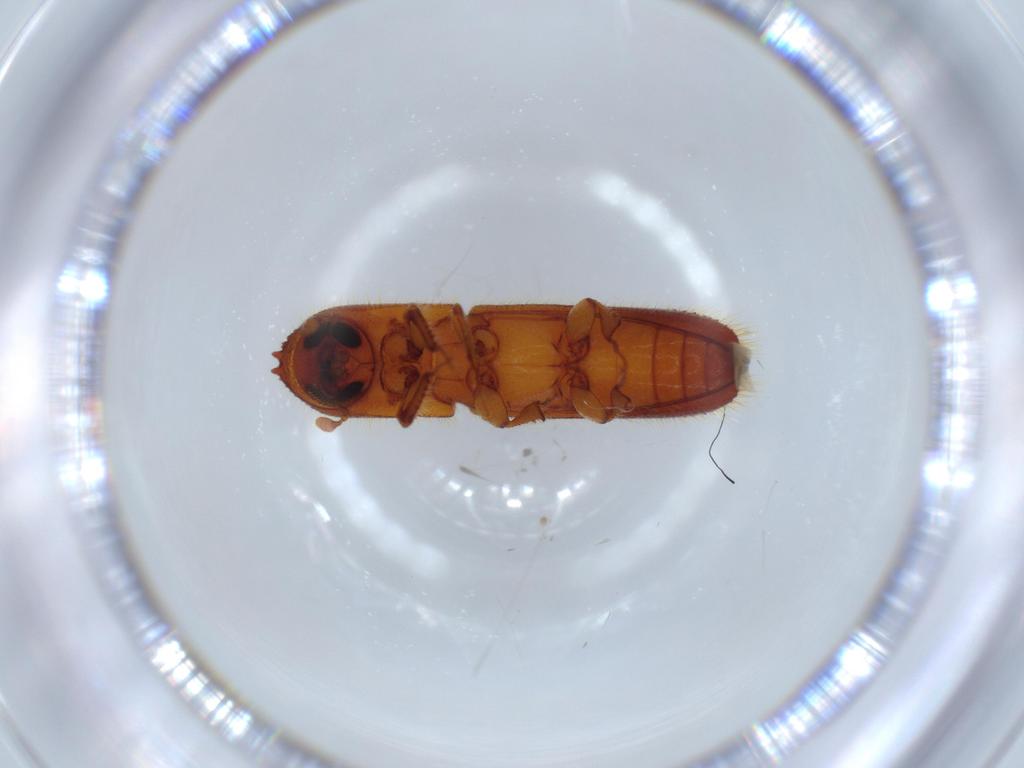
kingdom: Animalia
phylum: Arthropoda
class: Insecta
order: Coleoptera
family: Curculionidae
